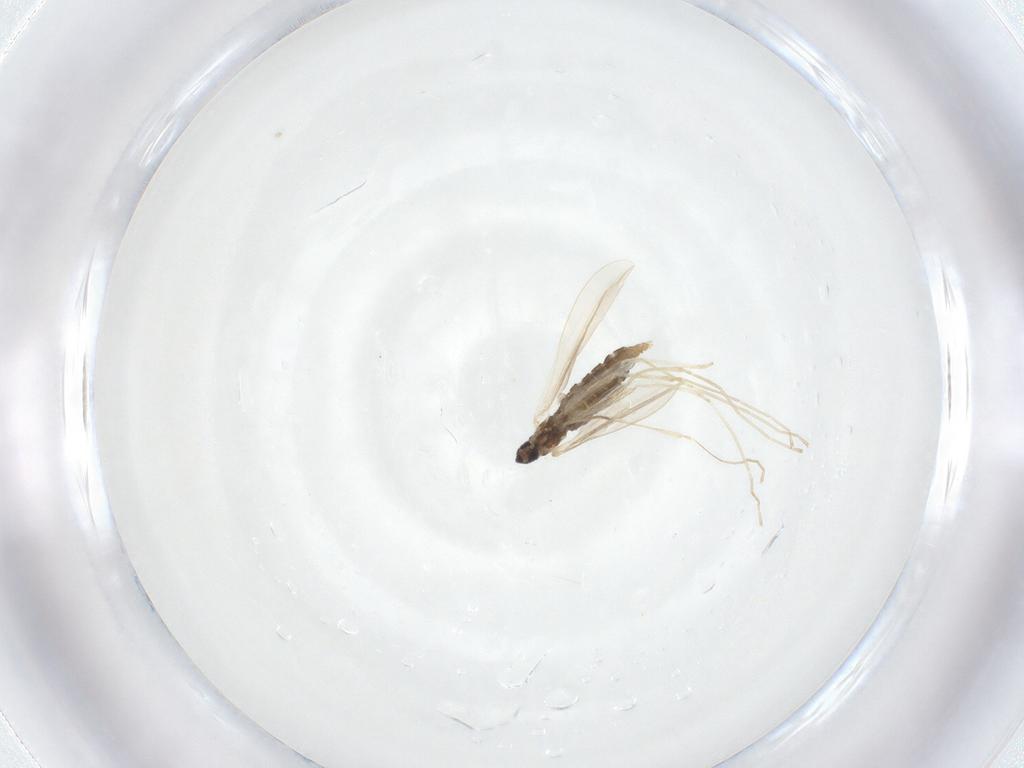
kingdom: Animalia
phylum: Arthropoda
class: Insecta
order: Diptera
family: Cecidomyiidae
